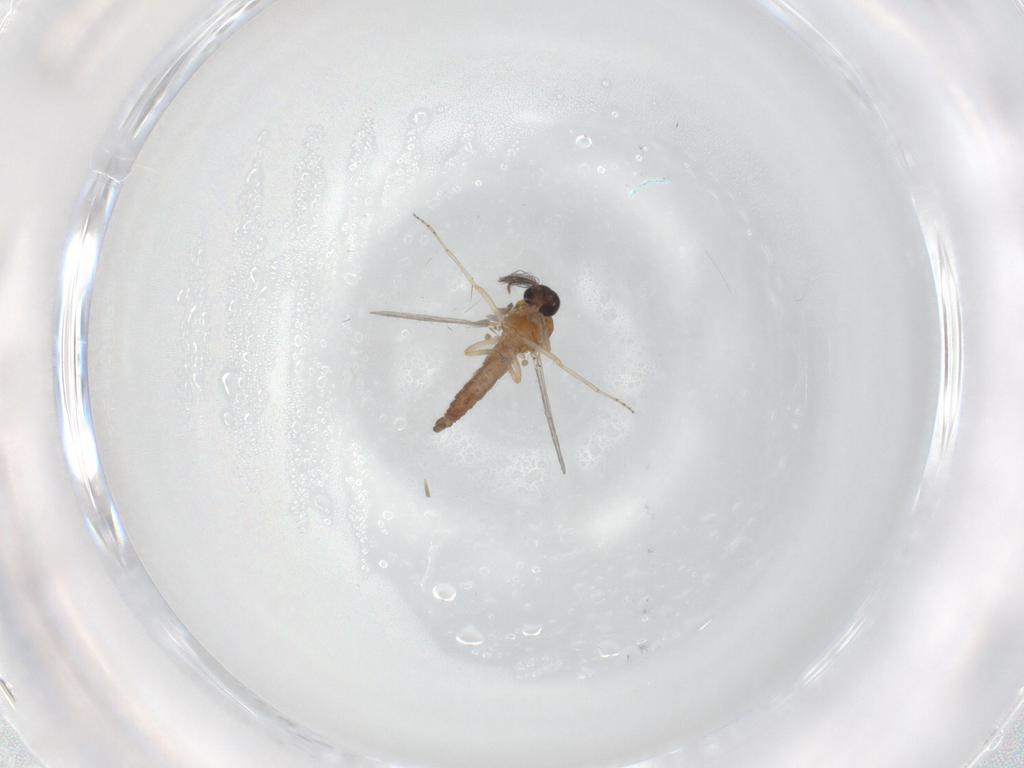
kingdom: Animalia
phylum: Arthropoda
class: Insecta
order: Diptera
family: Ceratopogonidae
